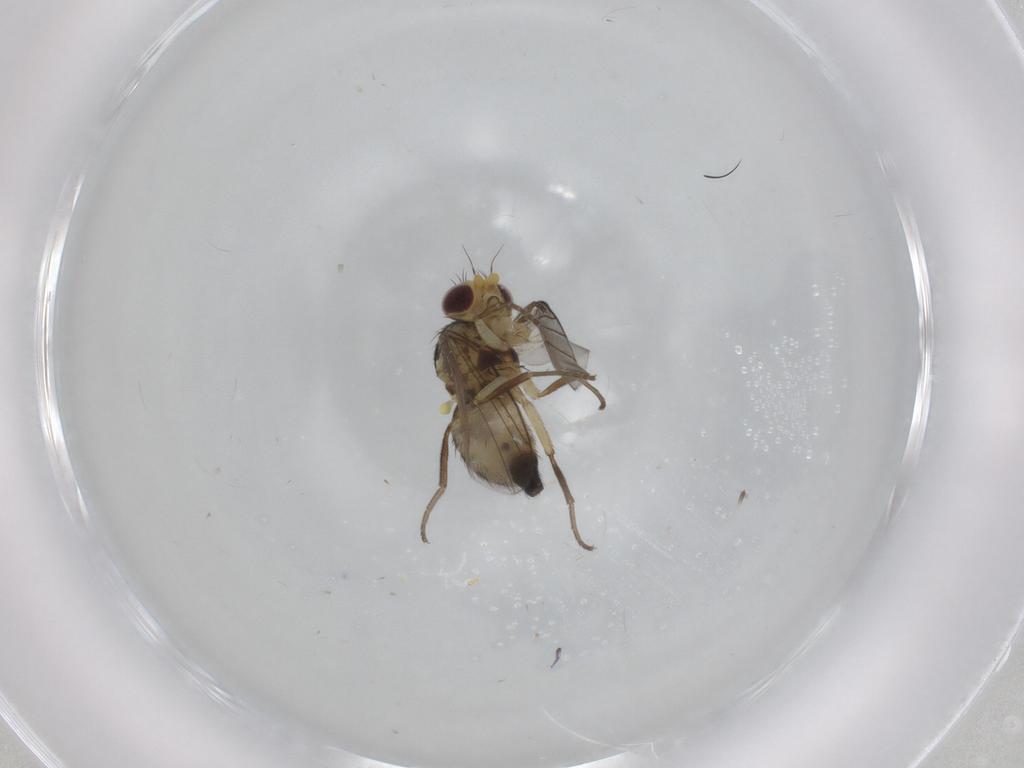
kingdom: Animalia
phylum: Arthropoda
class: Insecta
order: Diptera
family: Agromyzidae
